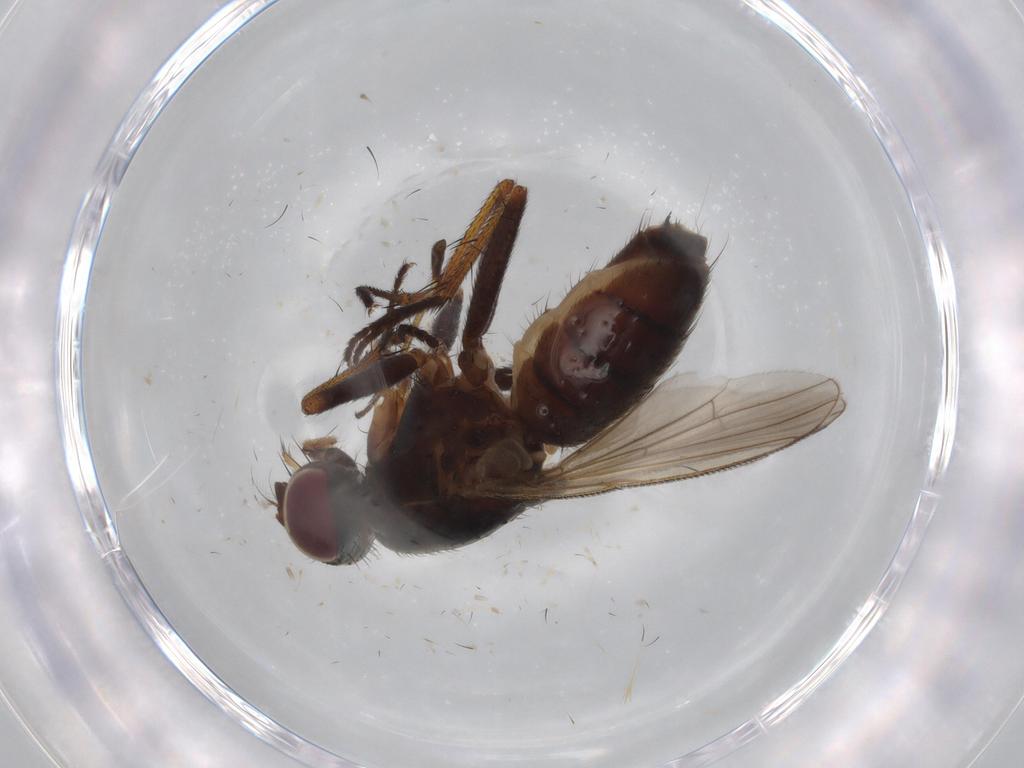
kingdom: Animalia
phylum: Arthropoda
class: Insecta
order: Diptera
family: Dolichopodidae
